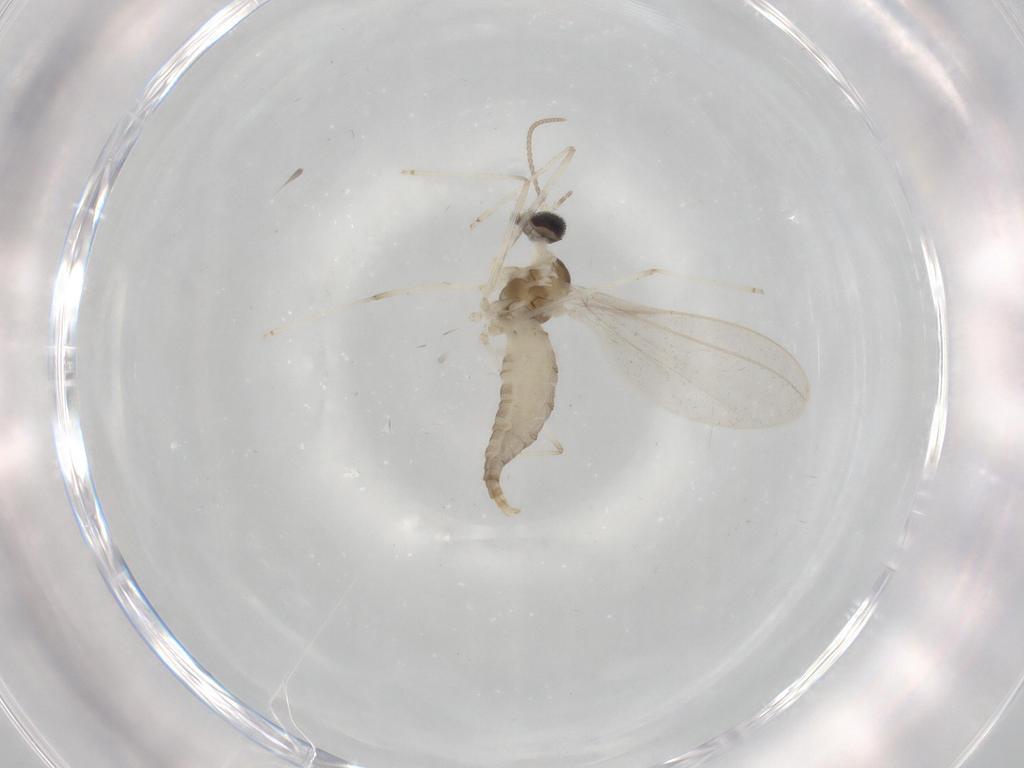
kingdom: Animalia
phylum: Arthropoda
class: Insecta
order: Diptera
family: Cecidomyiidae
